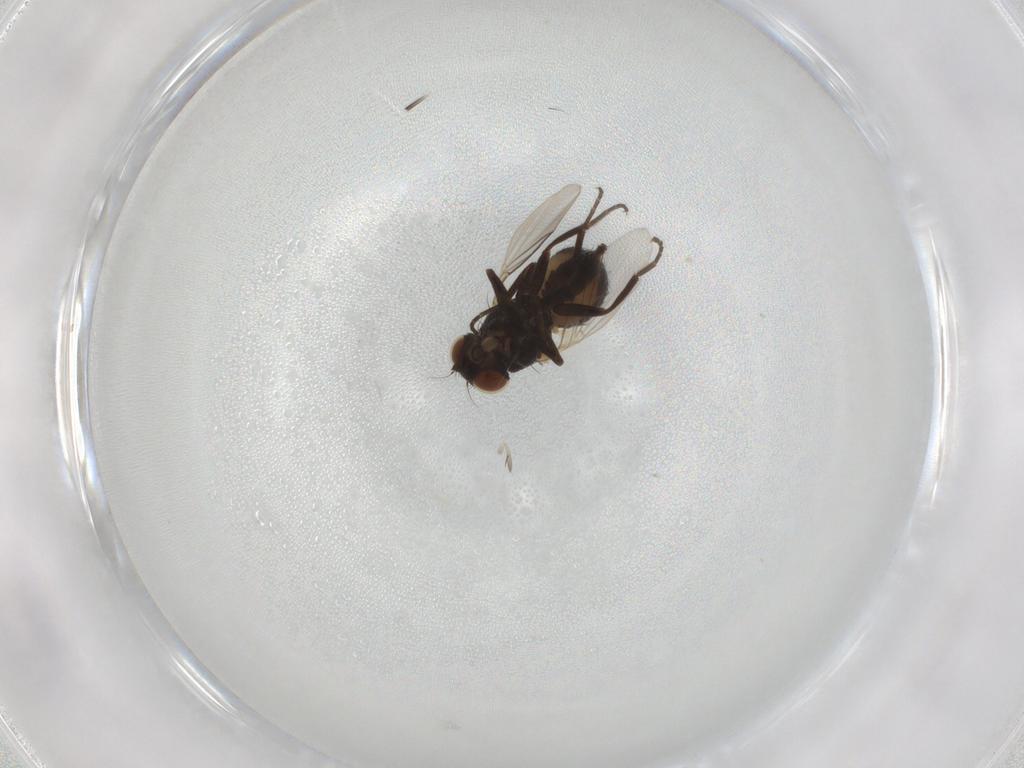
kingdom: Animalia
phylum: Arthropoda
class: Insecta
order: Diptera
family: Agromyzidae
